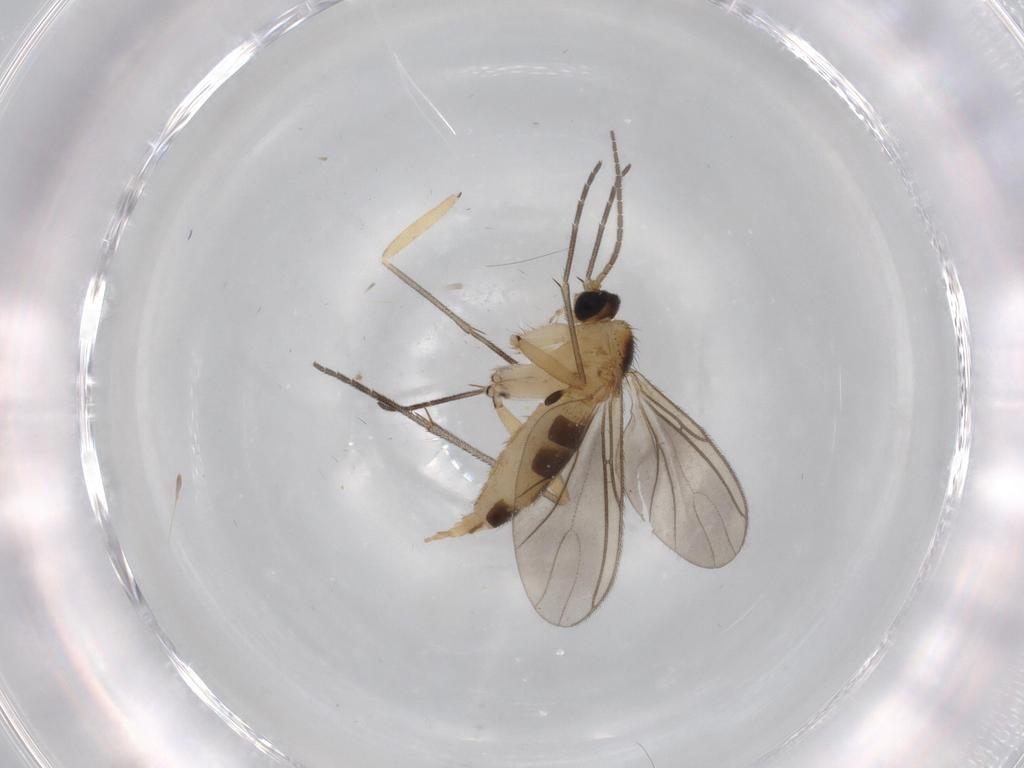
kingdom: Animalia
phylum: Arthropoda
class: Insecta
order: Diptera
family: Sciaridae
